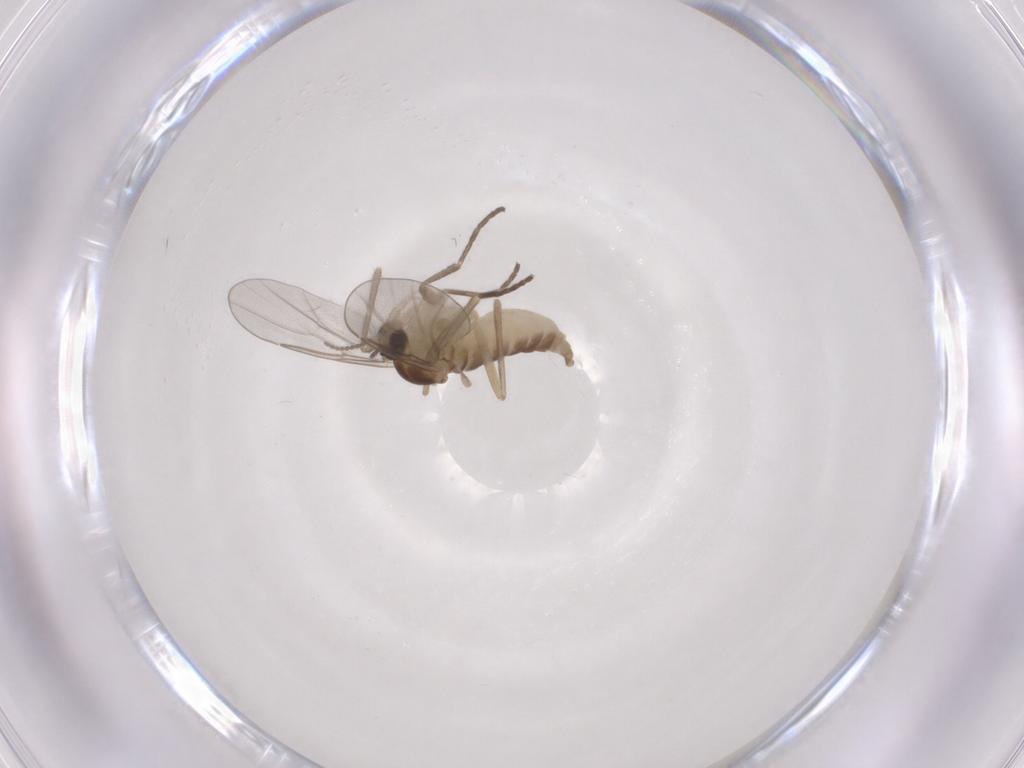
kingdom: Animalia
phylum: Arthropoda
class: Insecta
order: Diptera
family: Cecidomyiidae
